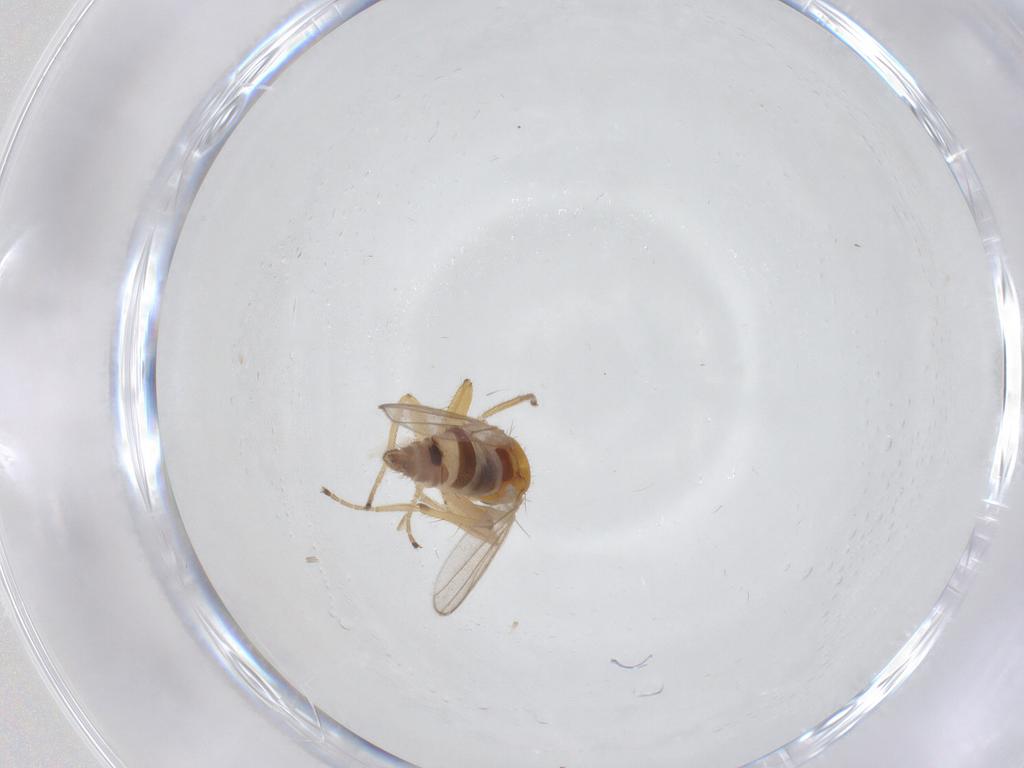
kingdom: Animalia
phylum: Arthropoda
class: Insecta
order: Diptera
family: Hybotidae
